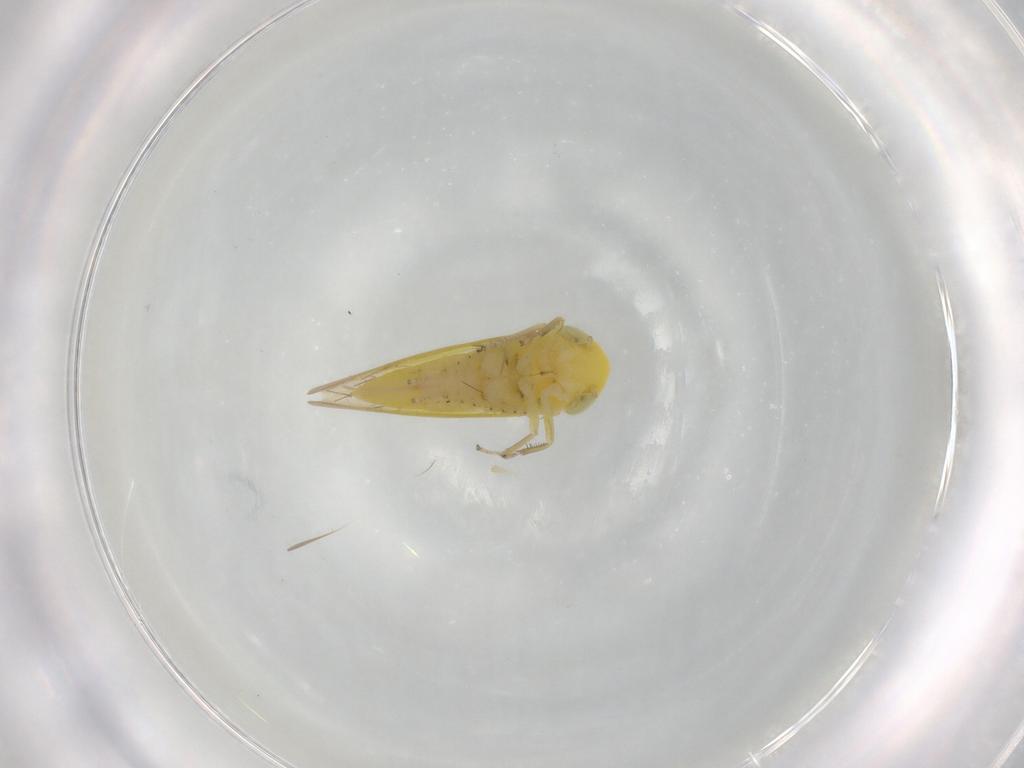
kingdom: Animalia
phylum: Arthropoda
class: Insecta
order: Hemiptera
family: Cicadellidae
